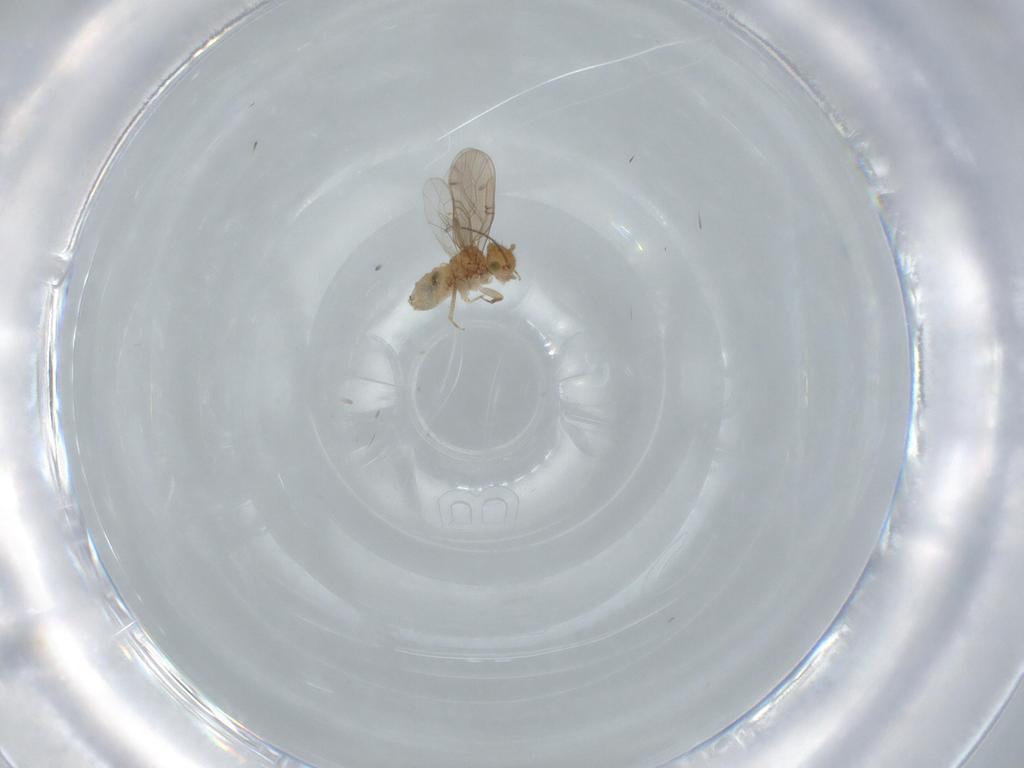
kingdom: Animalia
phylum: Arthropoda
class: Insecta
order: Psocodea
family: Ectopsocidae
